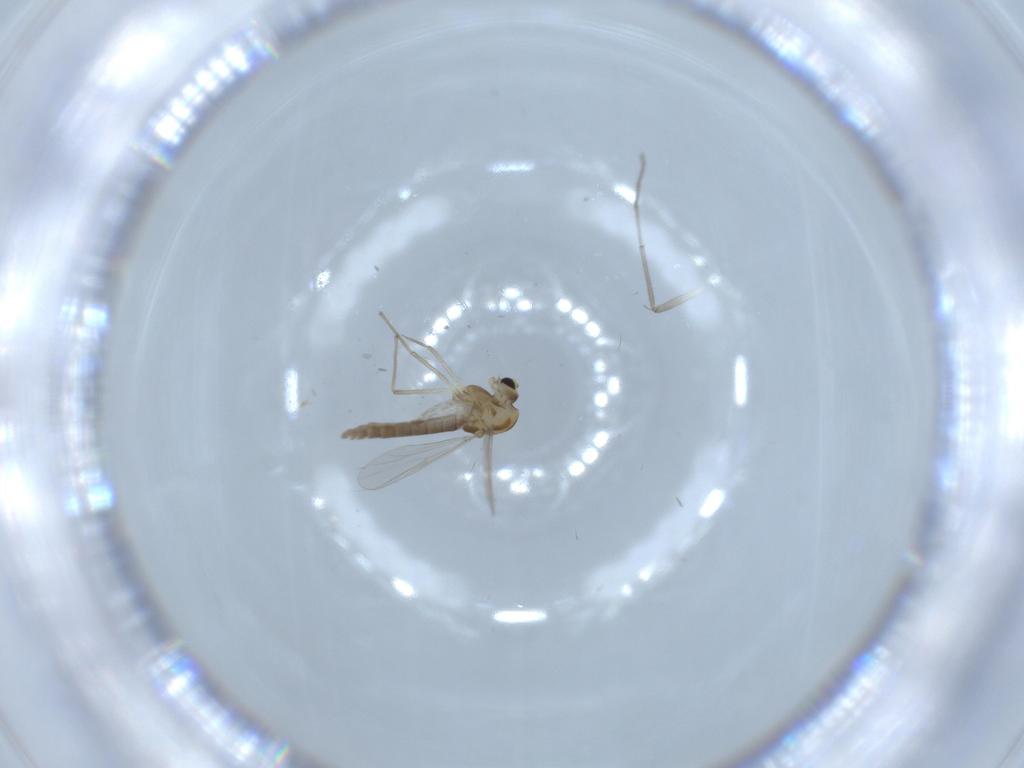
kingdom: Animalia
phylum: Arthropoda
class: Insecta
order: Diptera
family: Chironomidae
